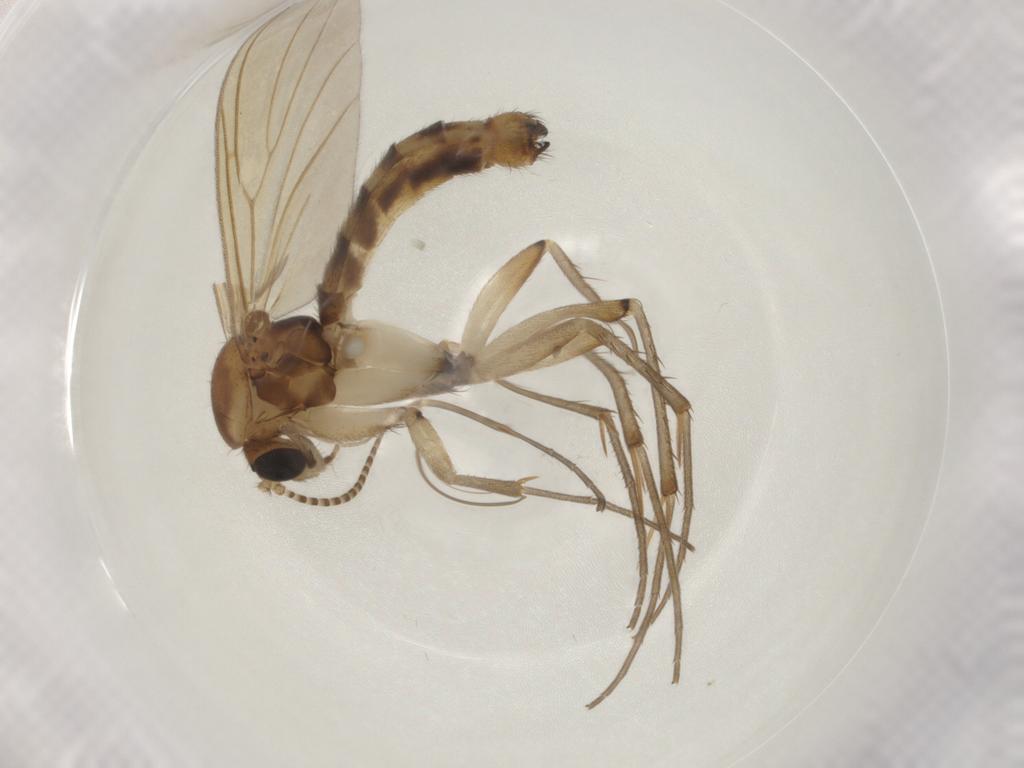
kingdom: Animalia
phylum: Arthropoda
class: Insecta
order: Diptera
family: Mycetophilidae
